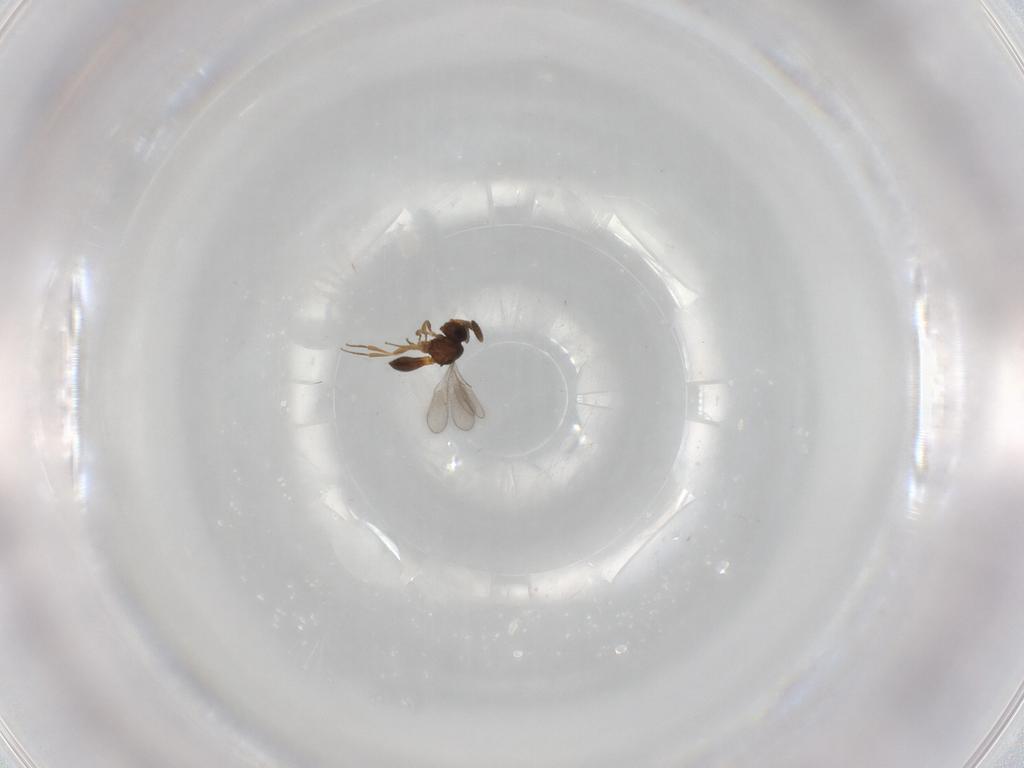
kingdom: Animalia
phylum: Arthropoda
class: Insecta
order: Hymenoptera
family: Scelionidae
